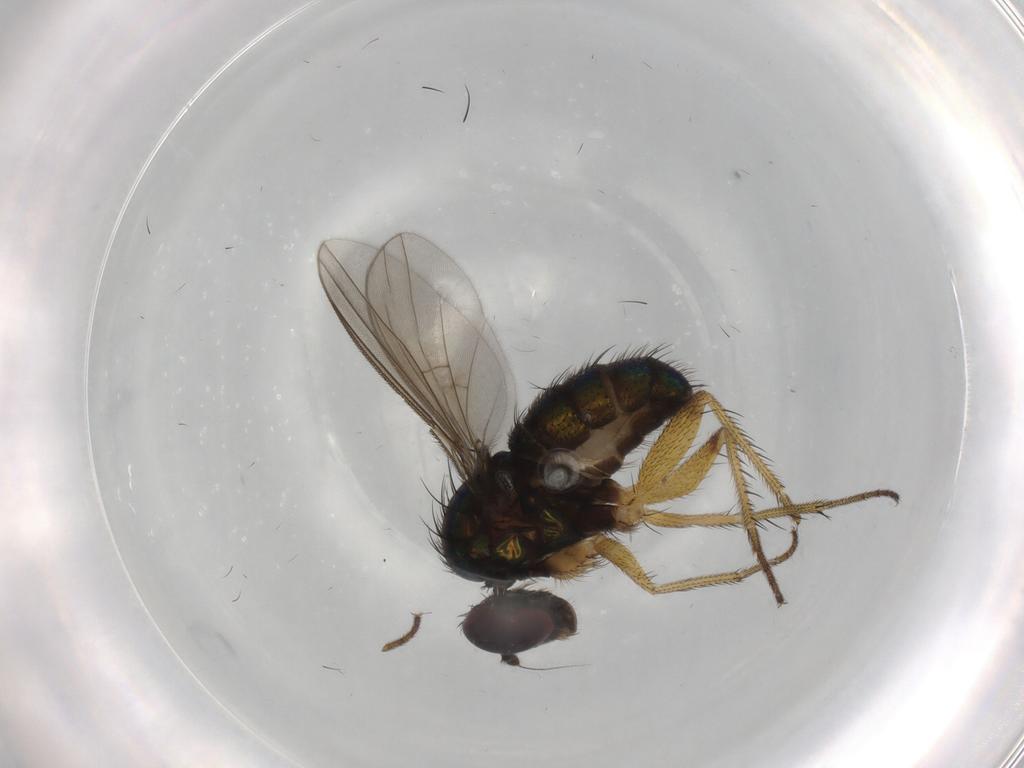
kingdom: Animalia
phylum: Arthropoda
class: Insecta
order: Diptera
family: Dolichopodidae
